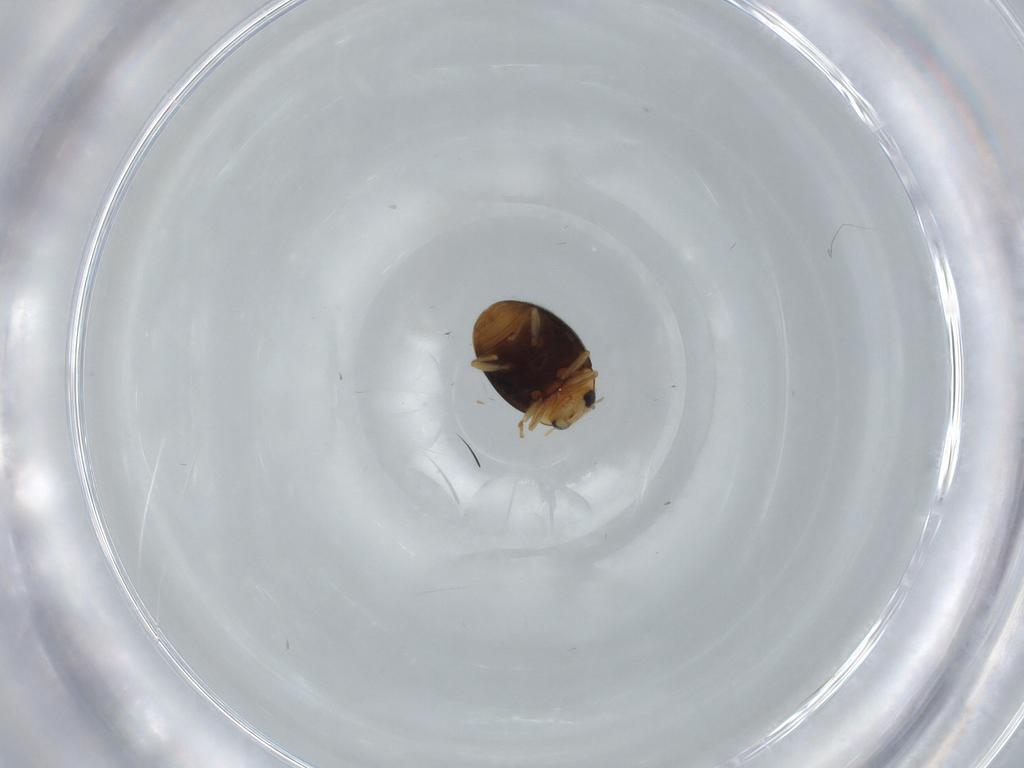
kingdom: Animalia
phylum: Arthropoda
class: Insecta
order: Coleoptera
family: Coccinellidae
